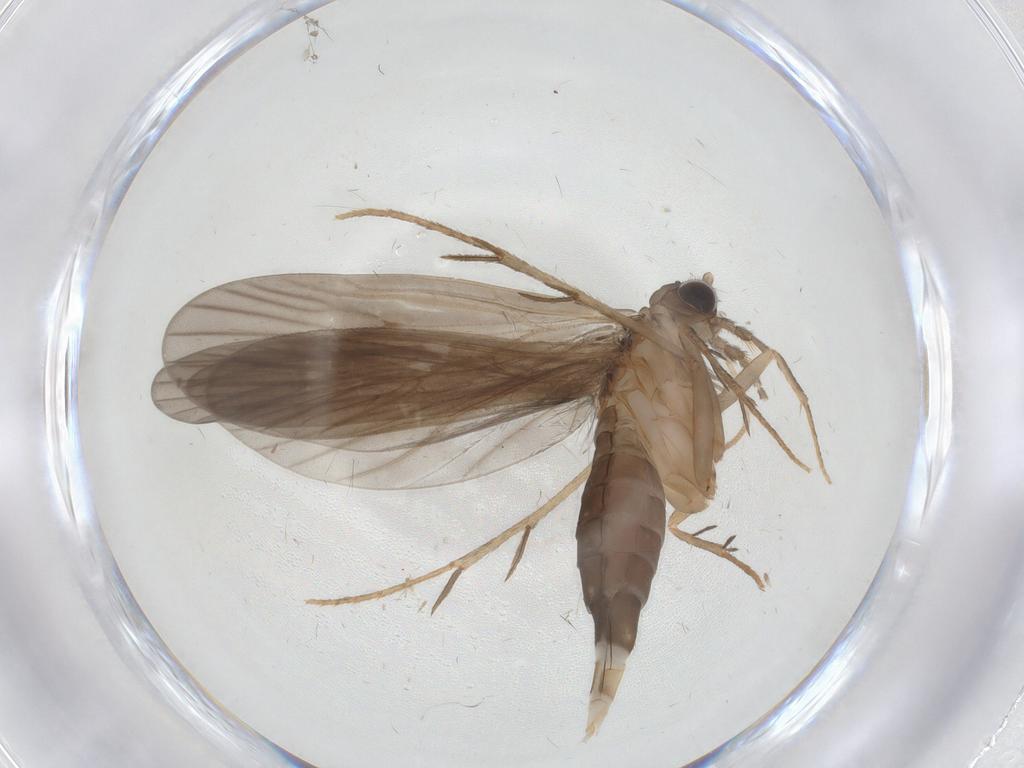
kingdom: Animalia
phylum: Arthropoda
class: Insecta
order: Trichoptera
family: Philopotamidae
